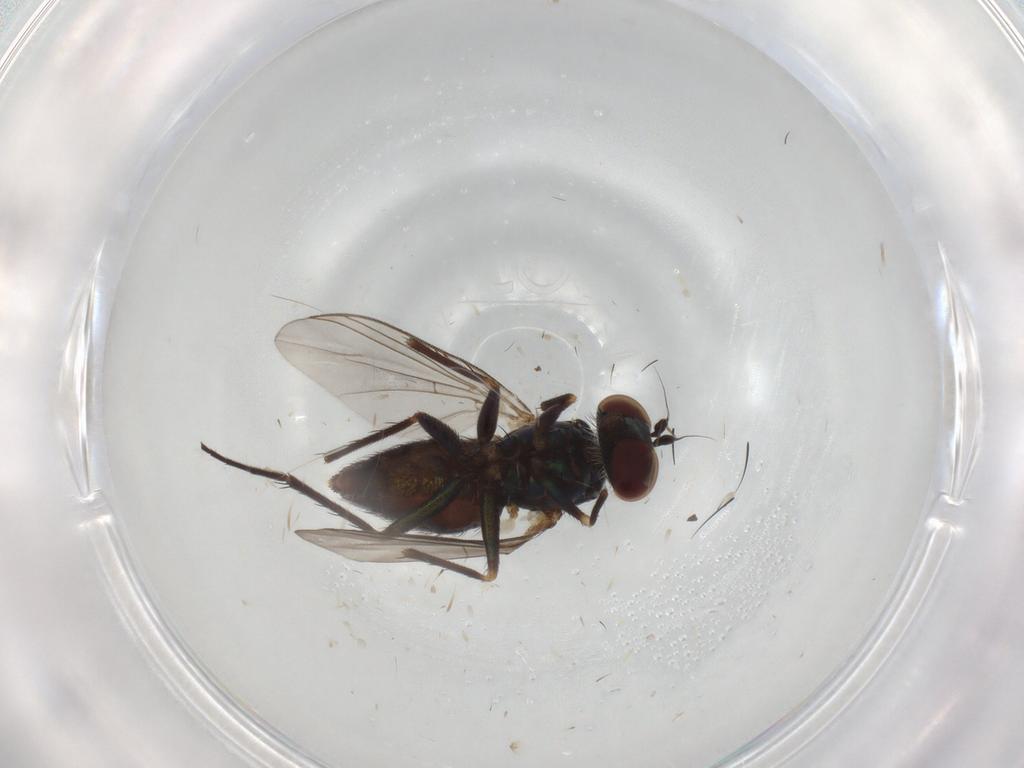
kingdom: Animalia
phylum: Arthropoda
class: Insecta
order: Diptera
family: Dolichopodidae
